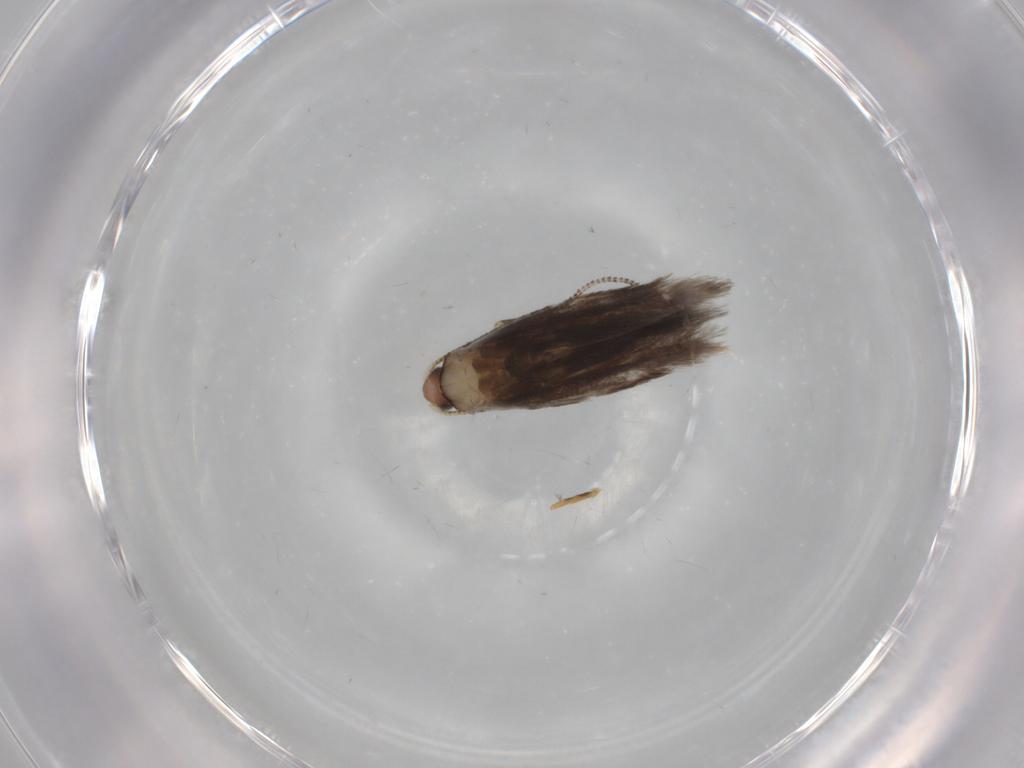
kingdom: Animalia
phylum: Arthropoda
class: Insecta
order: Lepidoptera
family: Meessiidae
